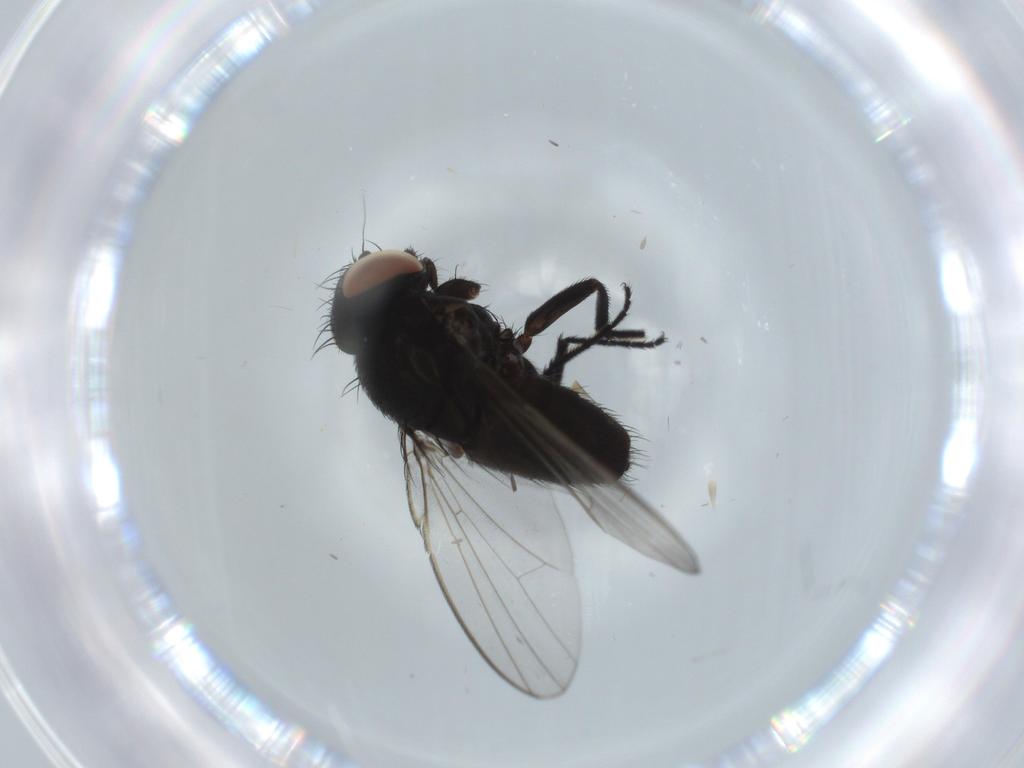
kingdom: Animalia
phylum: Arthropoda
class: Insecta
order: Diptera
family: Milichiidae
